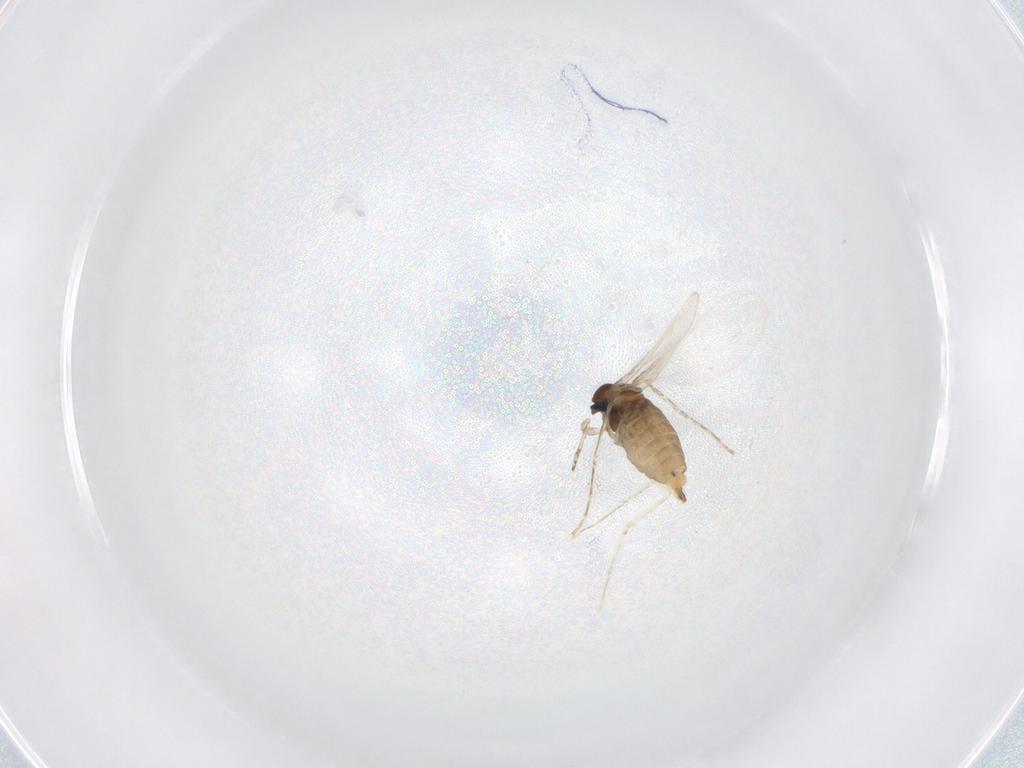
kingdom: Animalia
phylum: Arthropoda
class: Insecta
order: Diptera
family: Cecidomyiidae
